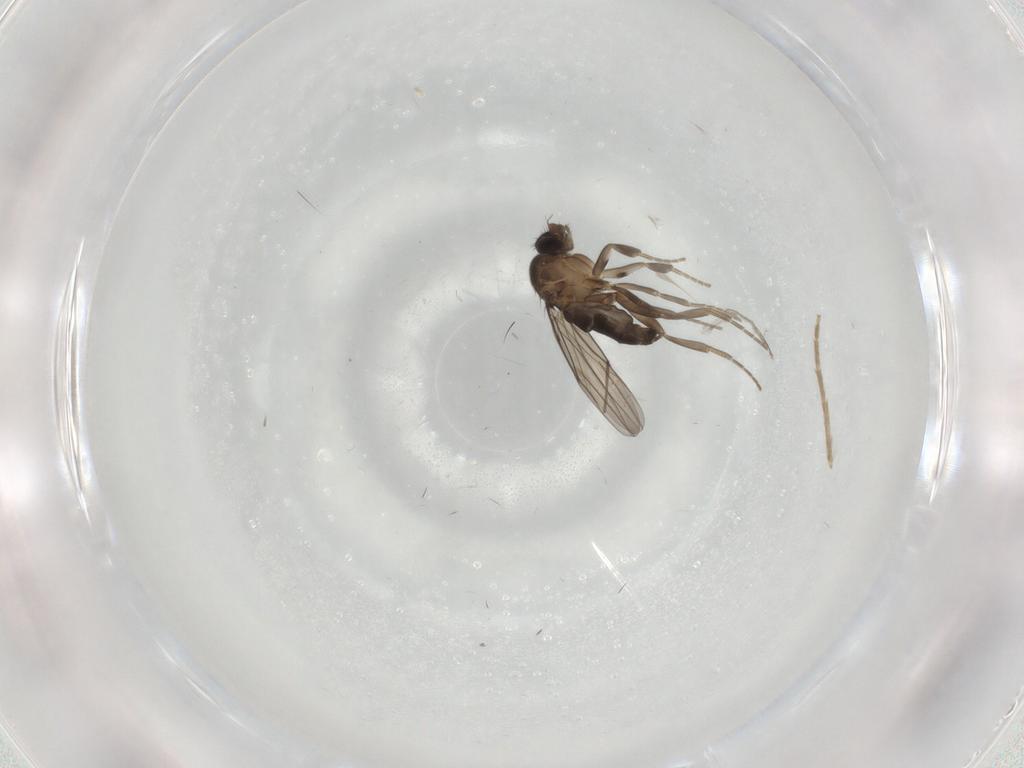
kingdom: Animalia
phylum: Arthropoda
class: Insecta
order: Diptera
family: Phoridae
